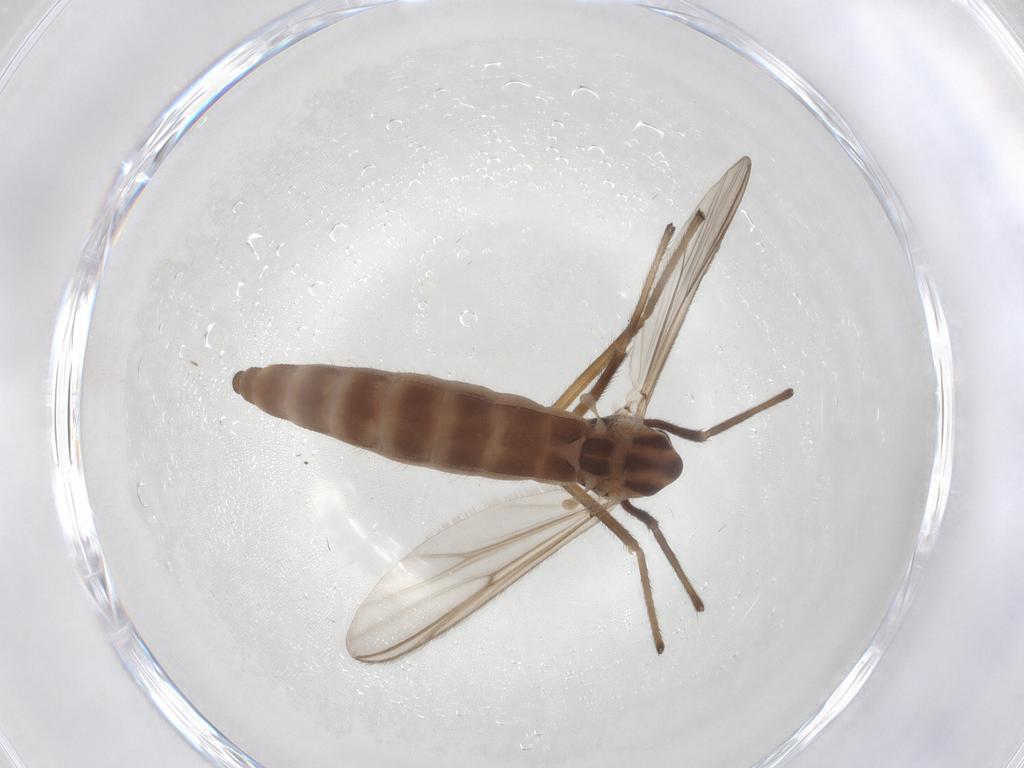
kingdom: Animalia
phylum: Arthropoda
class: Insecta
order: Diptera
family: Chironomidae
